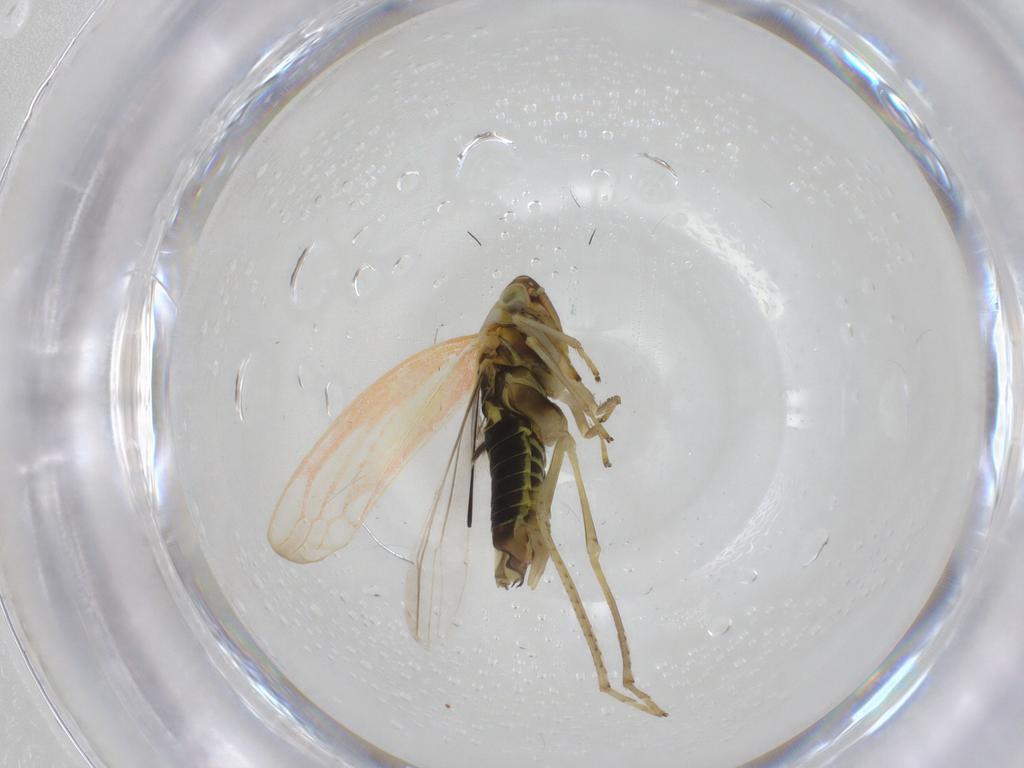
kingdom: Animalia
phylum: Arthropoda
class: Insecta
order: Hemiptera
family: Cicadellidae
